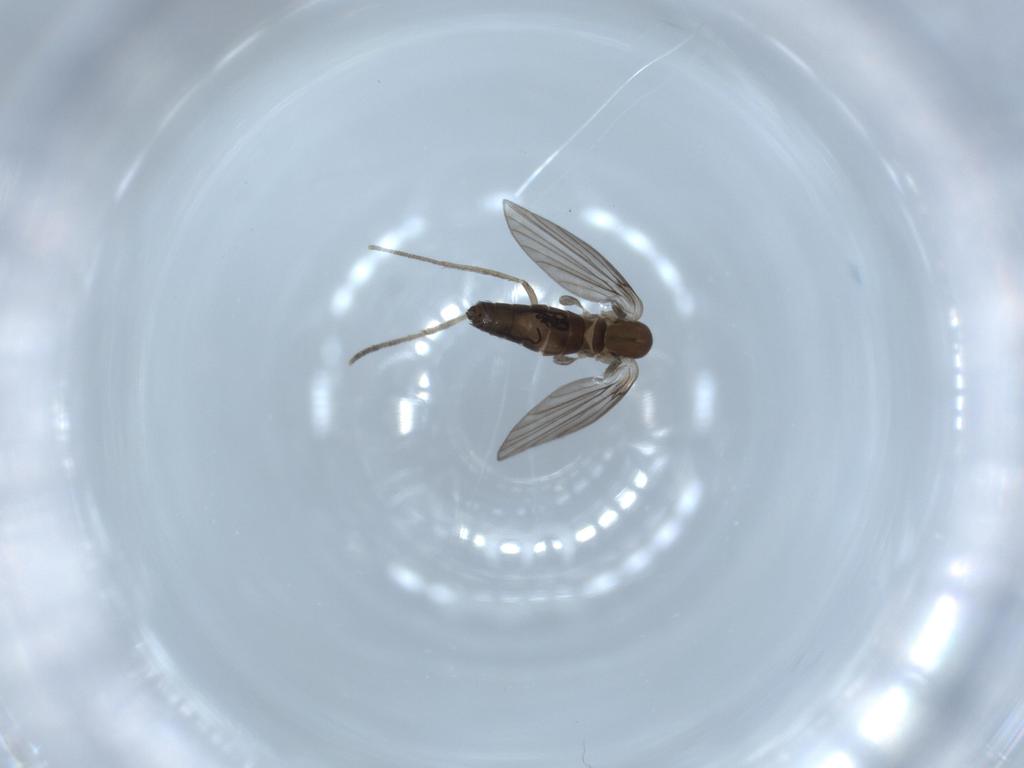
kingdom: Animalia
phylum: Arthropoda
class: Insecta
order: Diptera
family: Psychodidae
